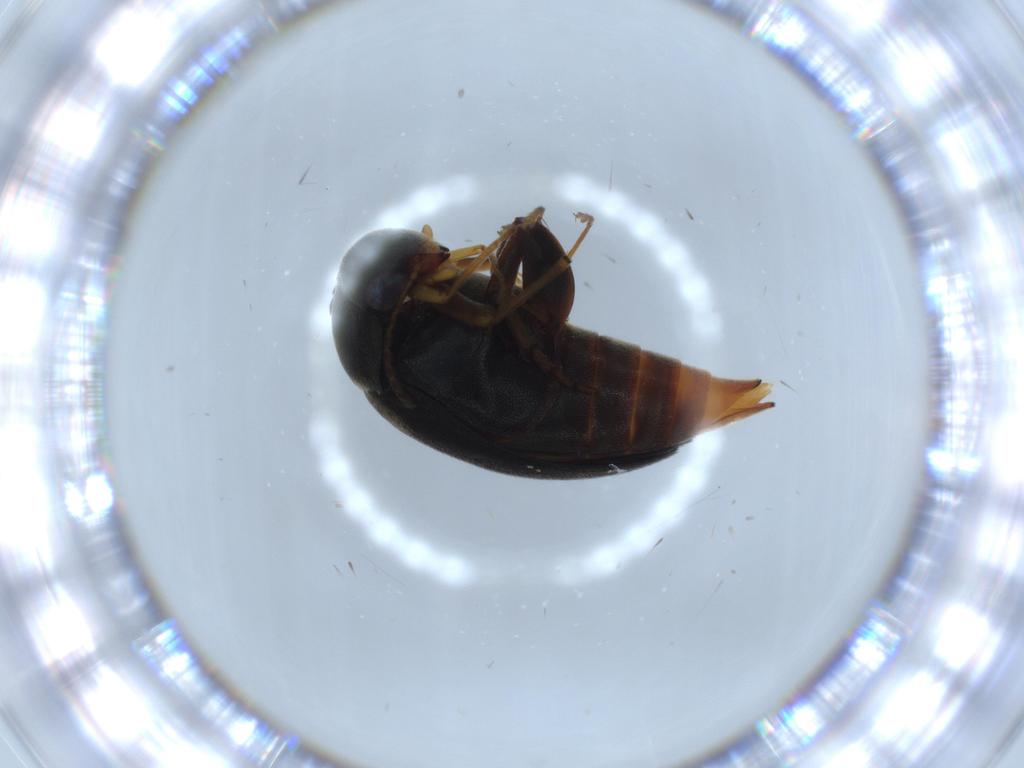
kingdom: Animalia
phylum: Arthropoda
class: Insecta
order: Coleoptera
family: Mordellidae
